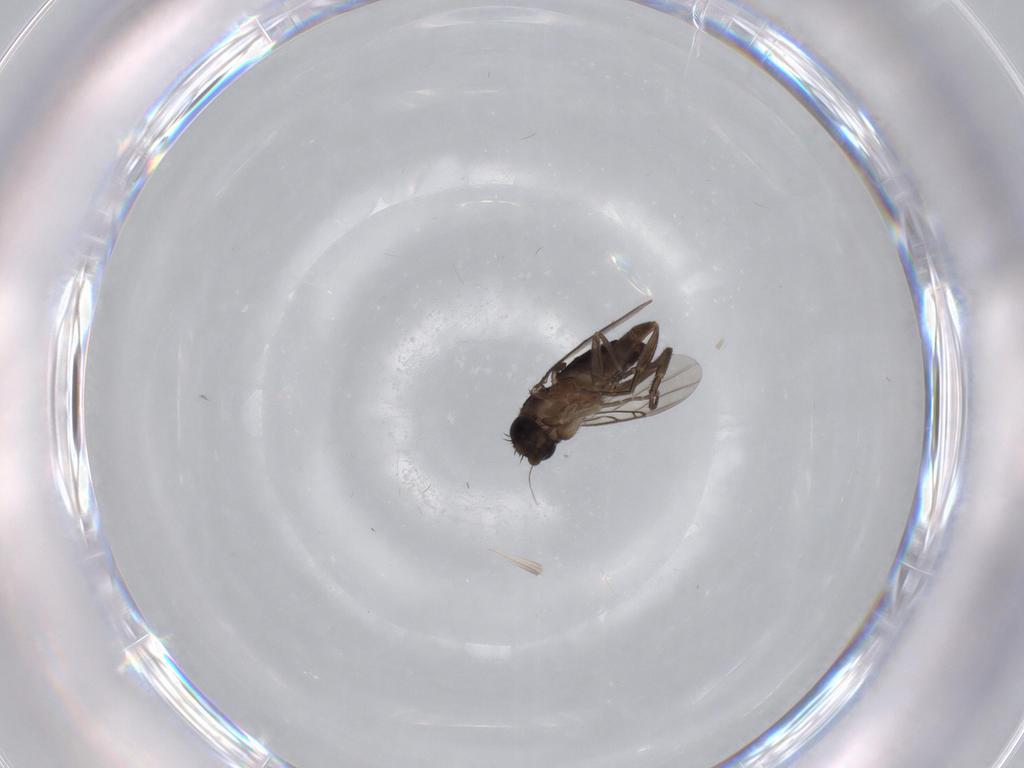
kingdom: Animalia
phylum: Arthropoda
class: Insecta
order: Diptera
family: Phoridae
